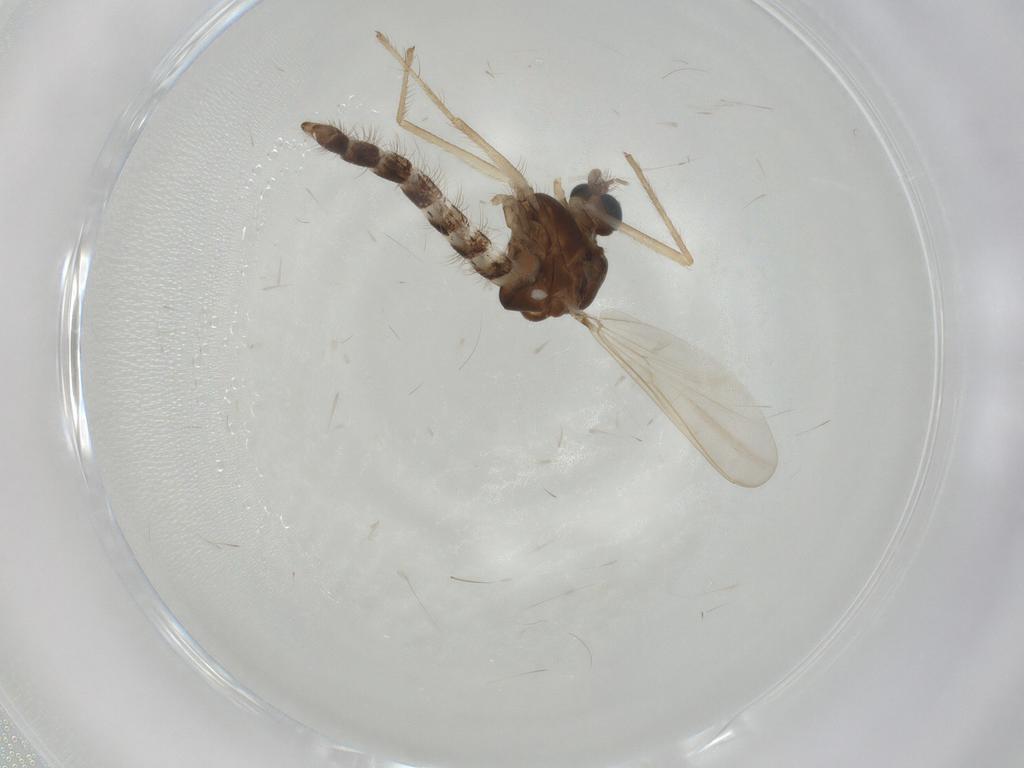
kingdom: Animalia
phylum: Arthropoda
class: Insecta
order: Diptera
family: Chironomidae
